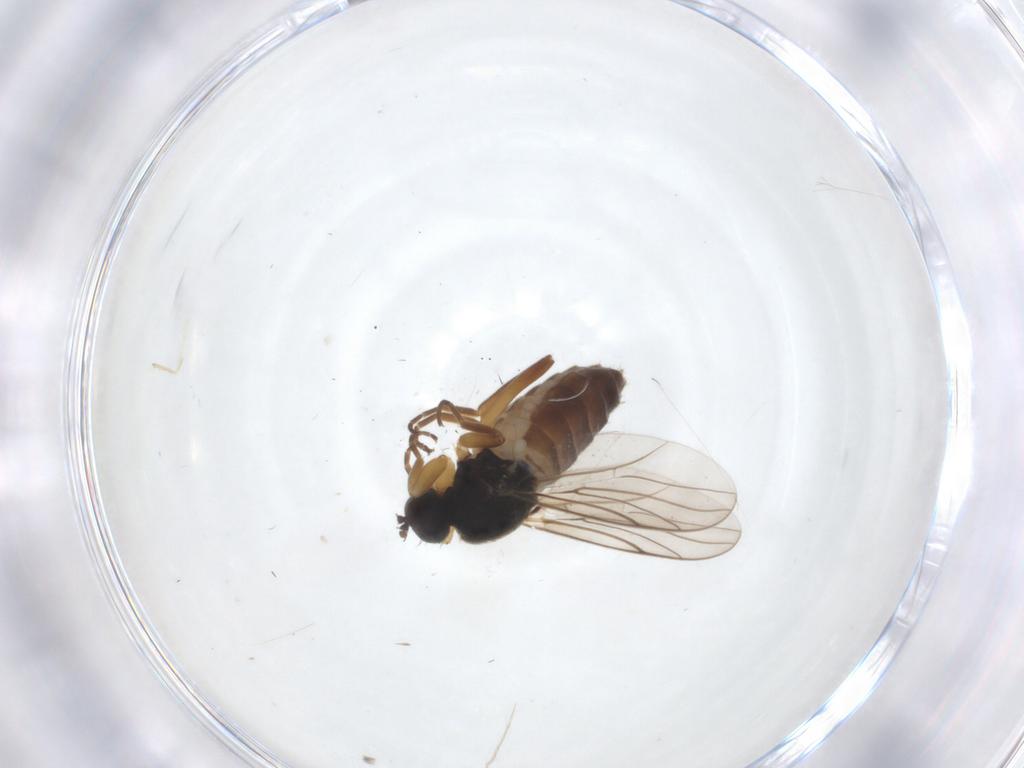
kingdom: Animalia
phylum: Arthropoda
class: Insecta
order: Diptera
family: Hybotidae
